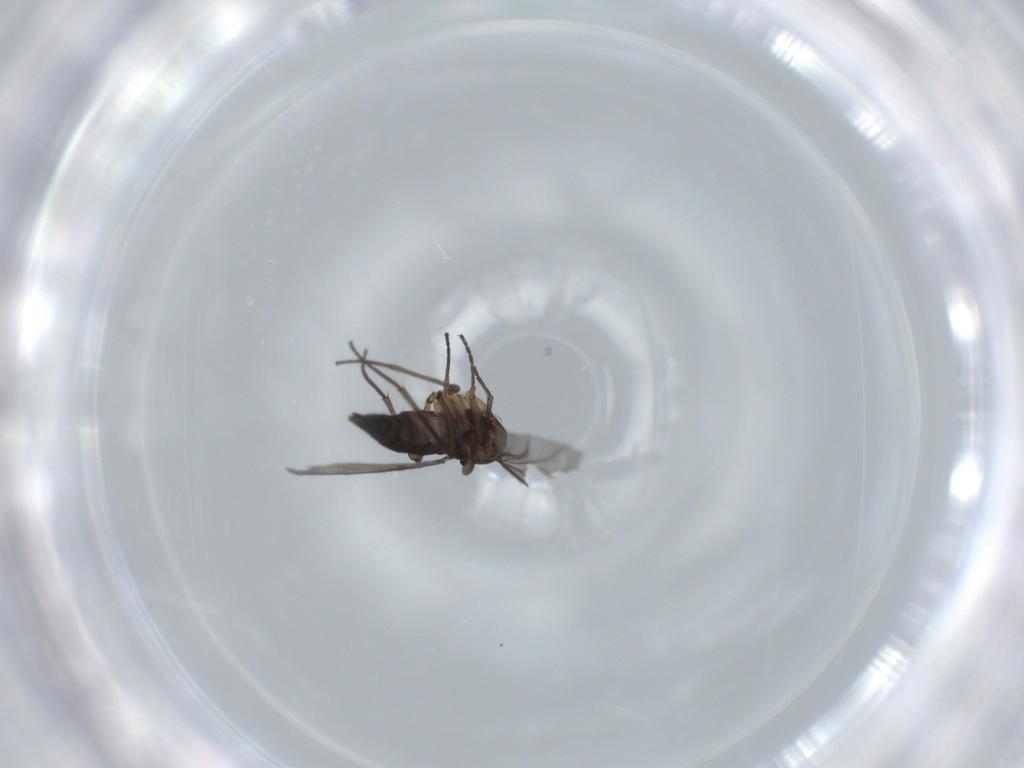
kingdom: Animalia
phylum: Arthropoda
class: Insecta
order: Diptera
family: Sciaridae
